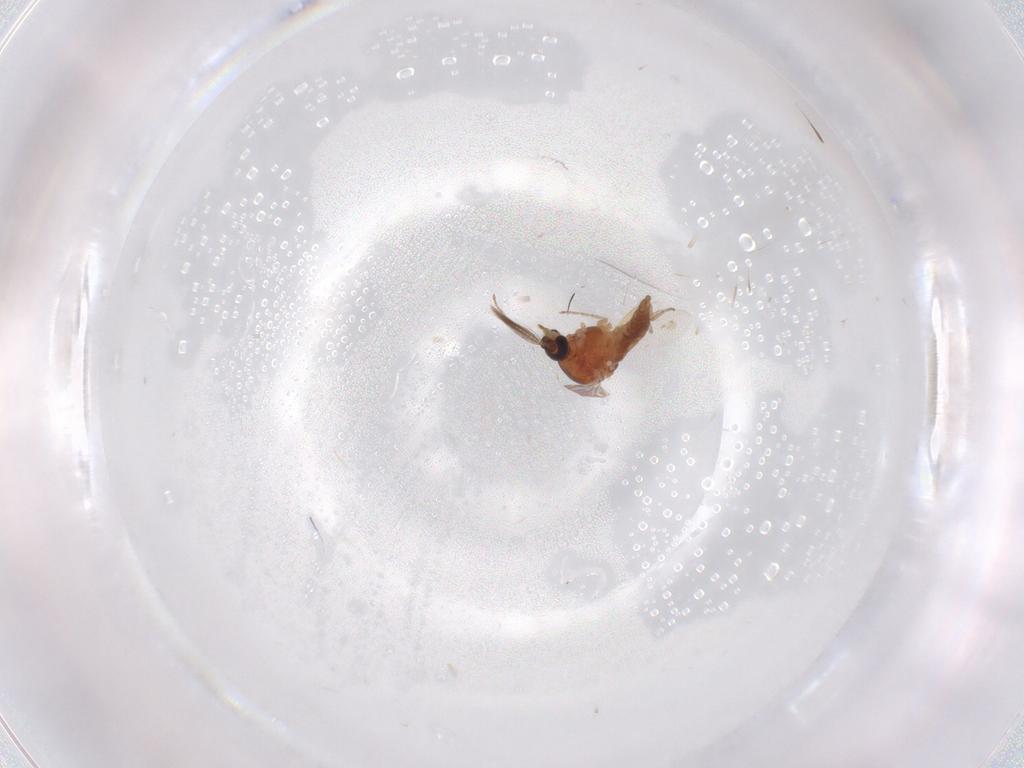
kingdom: Animalia
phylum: Arthropoda
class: Insecta
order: Diptera
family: Ceratopogonidae
